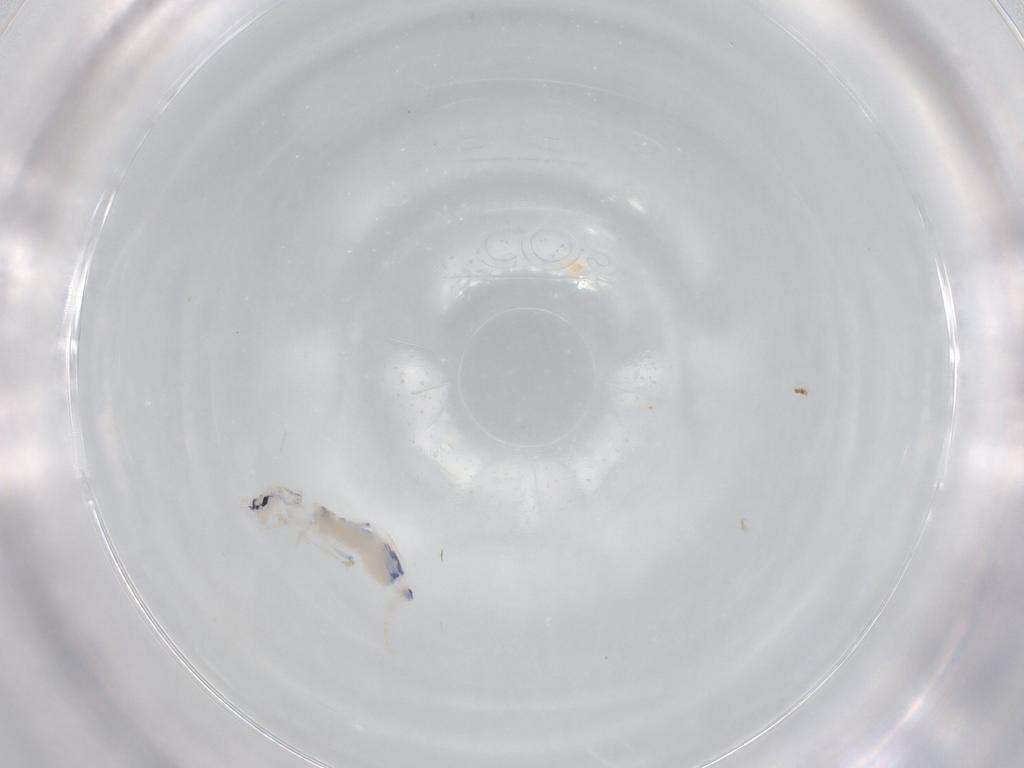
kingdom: Animalia
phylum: Arthropoda
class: Collembola
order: Entomobryomorpha
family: Entomobryidae
